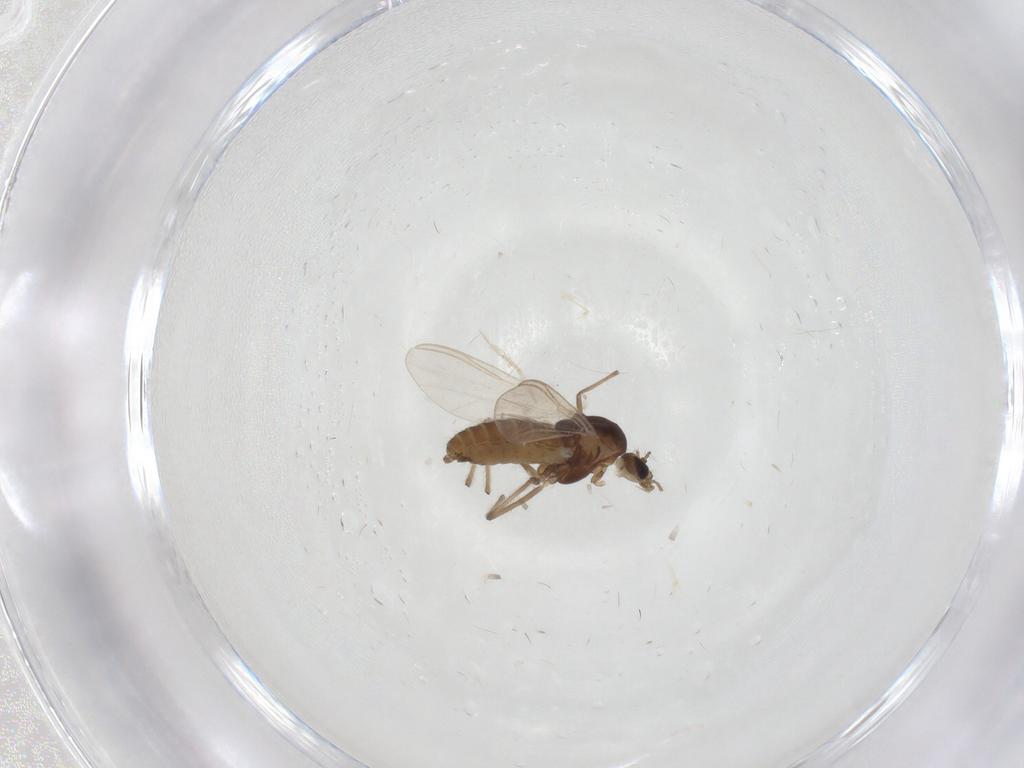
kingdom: Animalia
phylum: Arthropoda
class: Insecta
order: Diptera
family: Chironomidae
